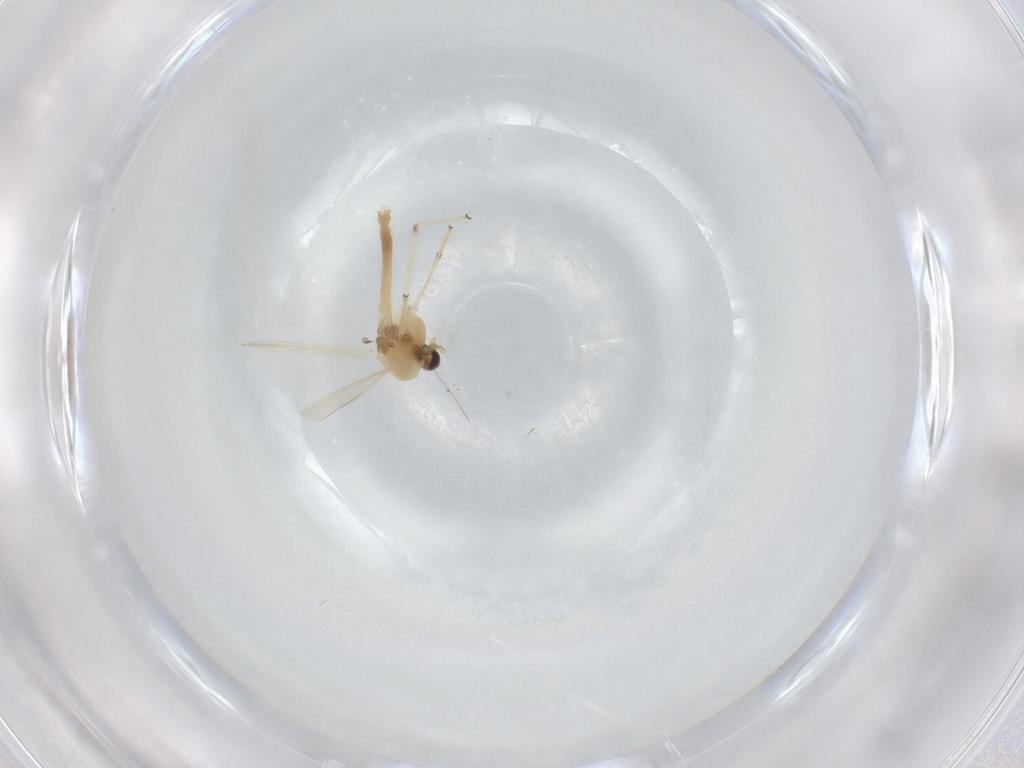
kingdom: Animalia
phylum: Arthropoda
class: Insecta
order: Diptera
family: Chironomidae
